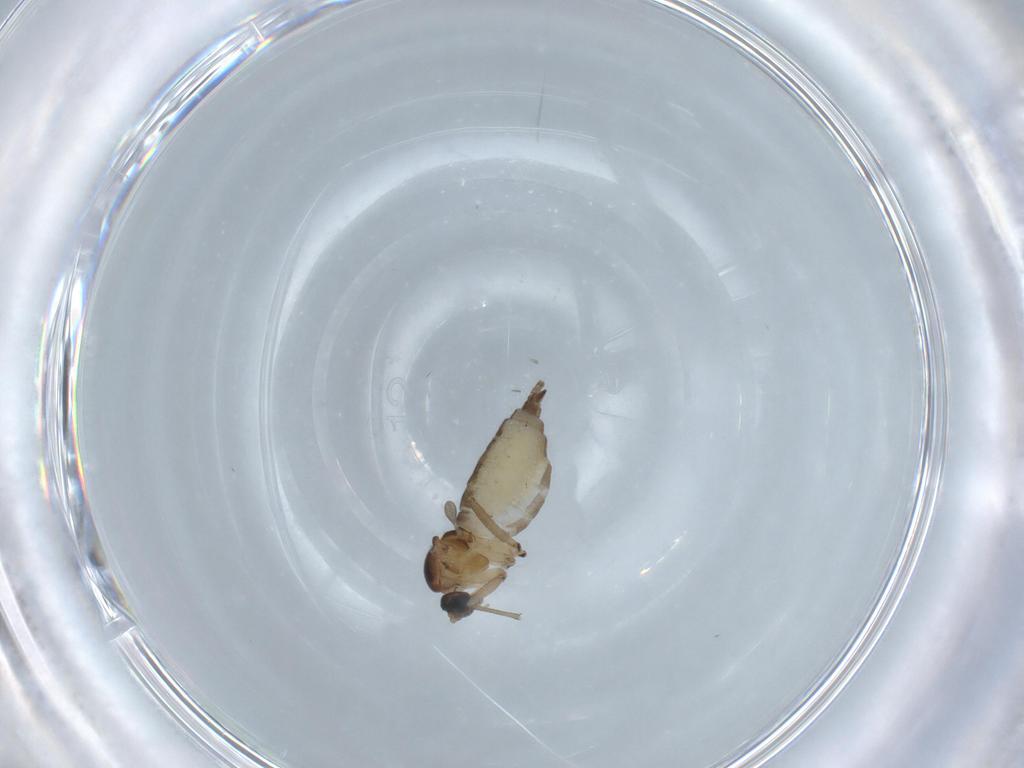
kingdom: Animalia
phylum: Arthropoda
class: Insecta
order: Diptera
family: Sciaridae
